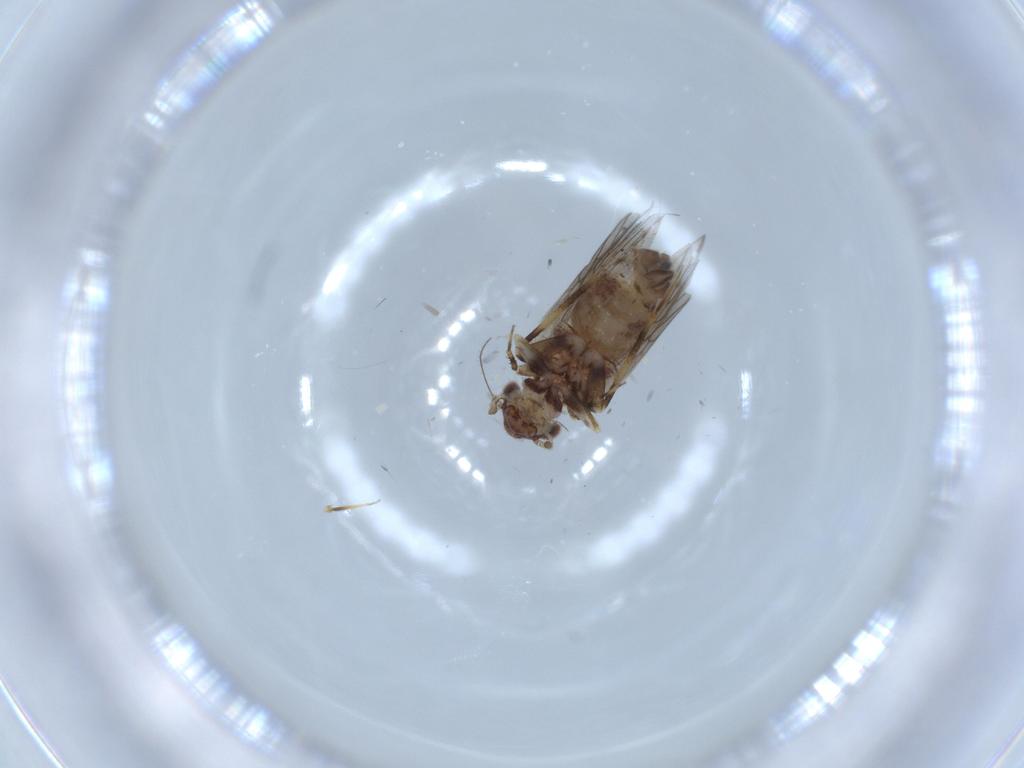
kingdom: Animalia
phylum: Arthropoda
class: Insecta
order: Psocodea
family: Lepidopsocidae
